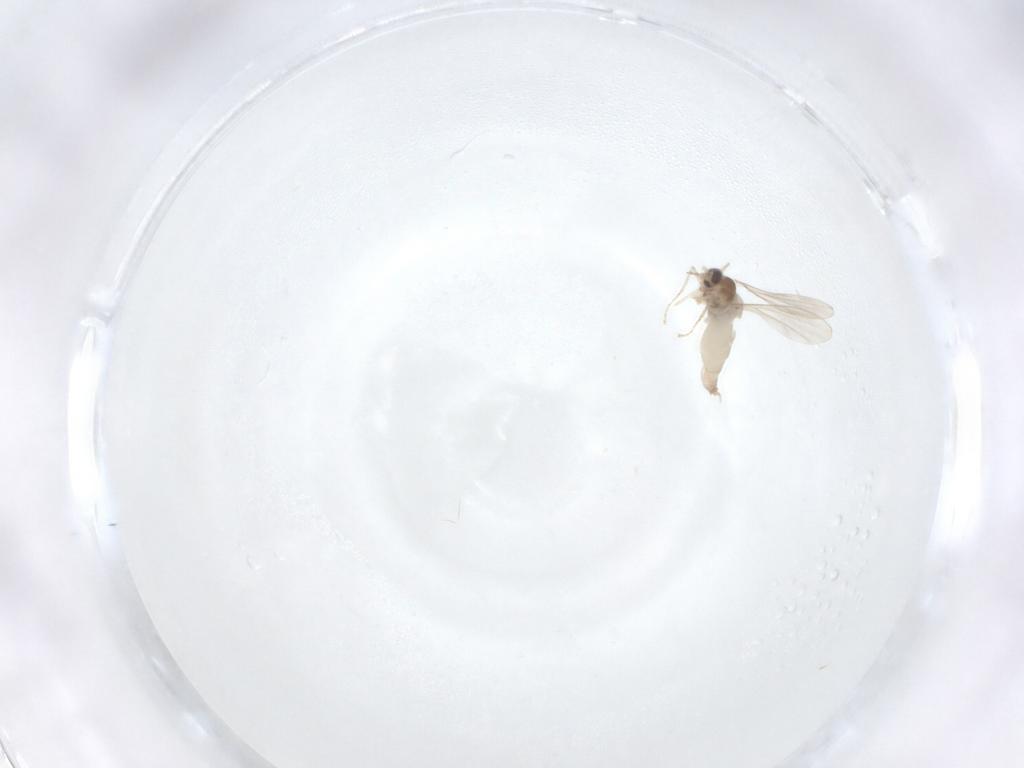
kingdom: Animalia
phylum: Arthropoda
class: Insecta
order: Diptera
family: Cecidomyiidae
